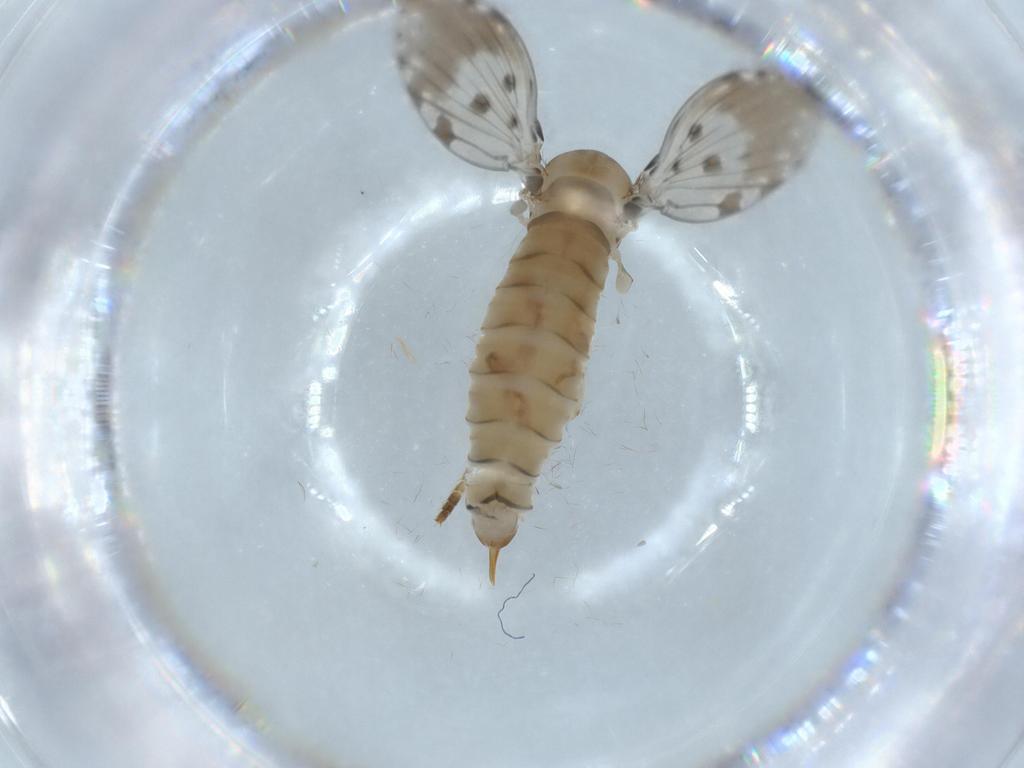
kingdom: Animalia
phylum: Arthropoda
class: Insecta
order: Diptera
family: Psychodidae
